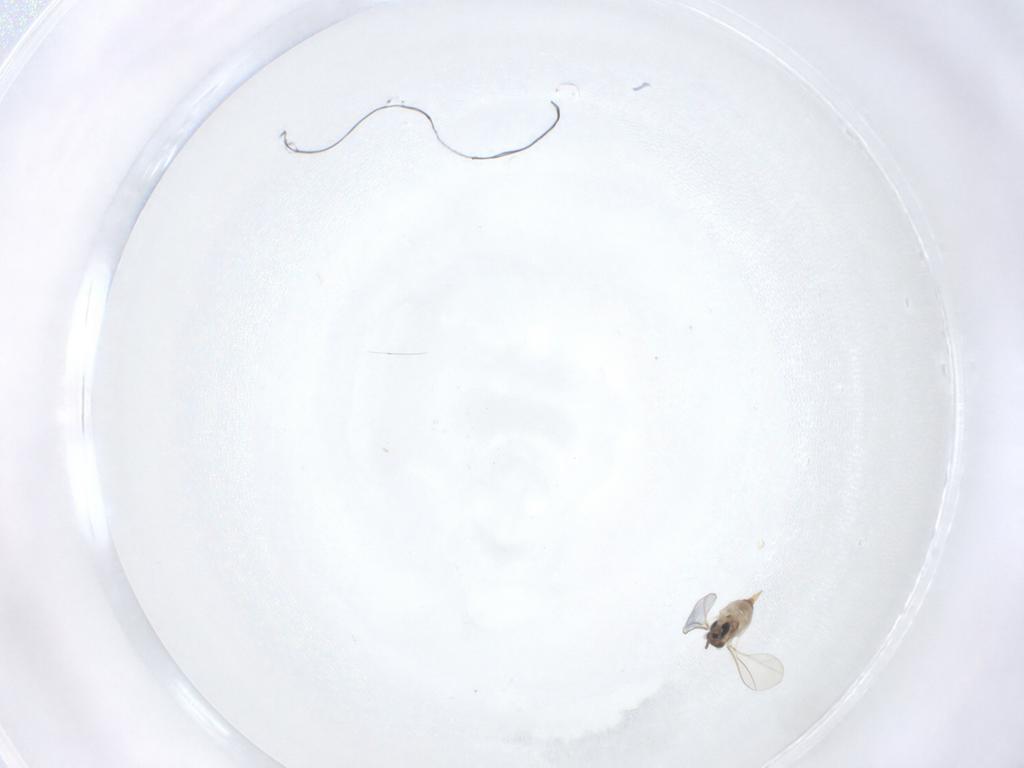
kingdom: Animalia
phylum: Arthropoda
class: Insecta
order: Diptera
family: Cecidomyiidae
